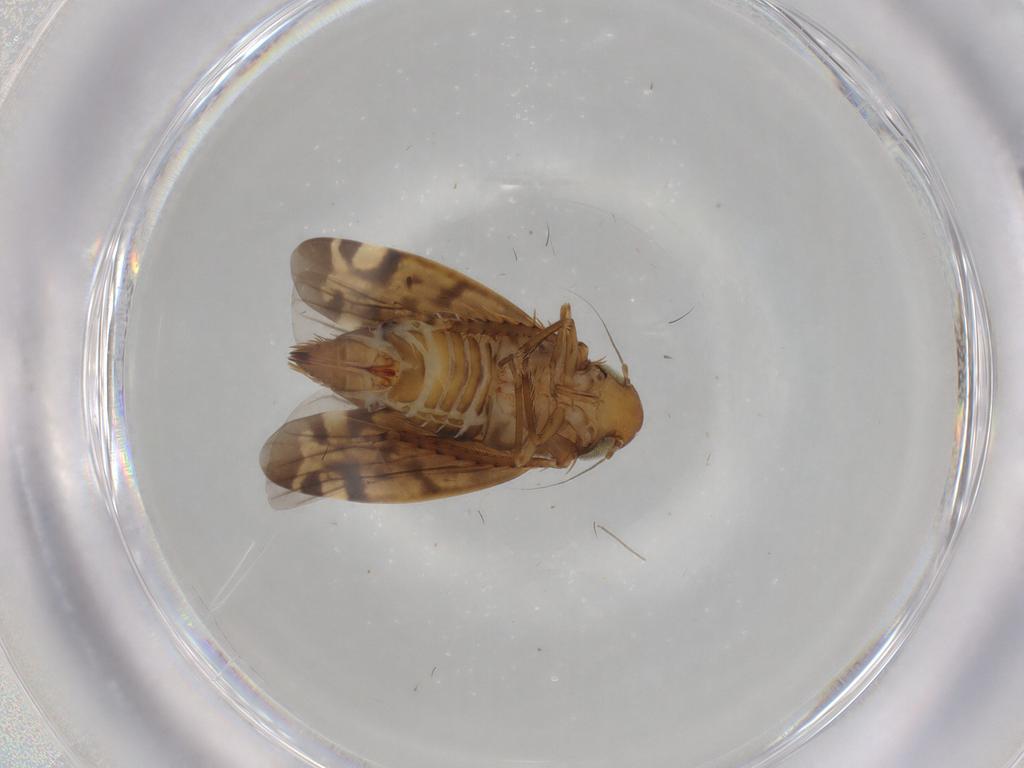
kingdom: Animalia
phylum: Arthropoda
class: Insecta
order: Hemiptera
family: Cicadellidae
